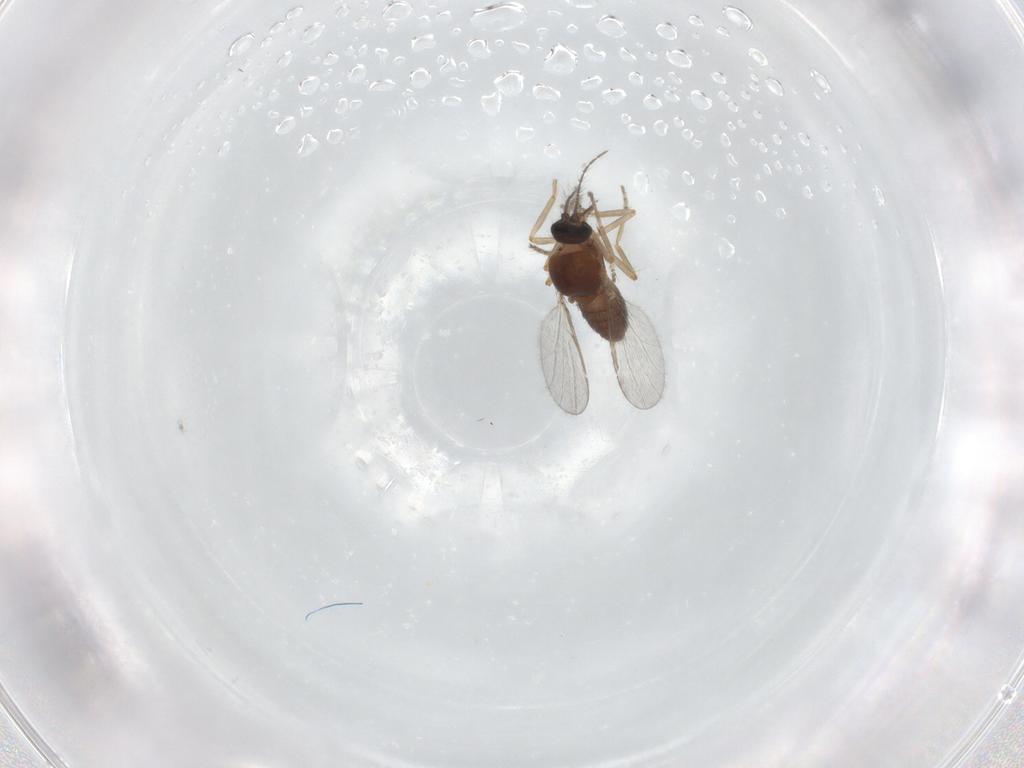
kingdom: Animalia
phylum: Arthropoda
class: Insecta
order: Diptera
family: Ceratopogonidae
